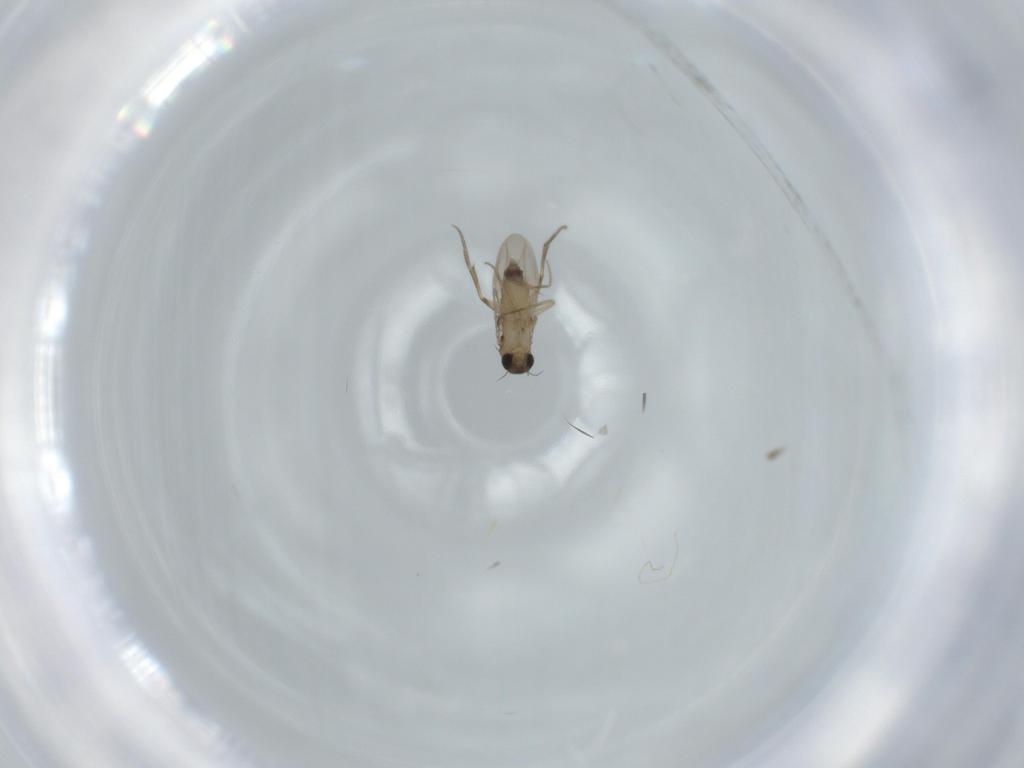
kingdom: Animalia
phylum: Arthropoda
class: Insecta
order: Diptera
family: Phoridae
